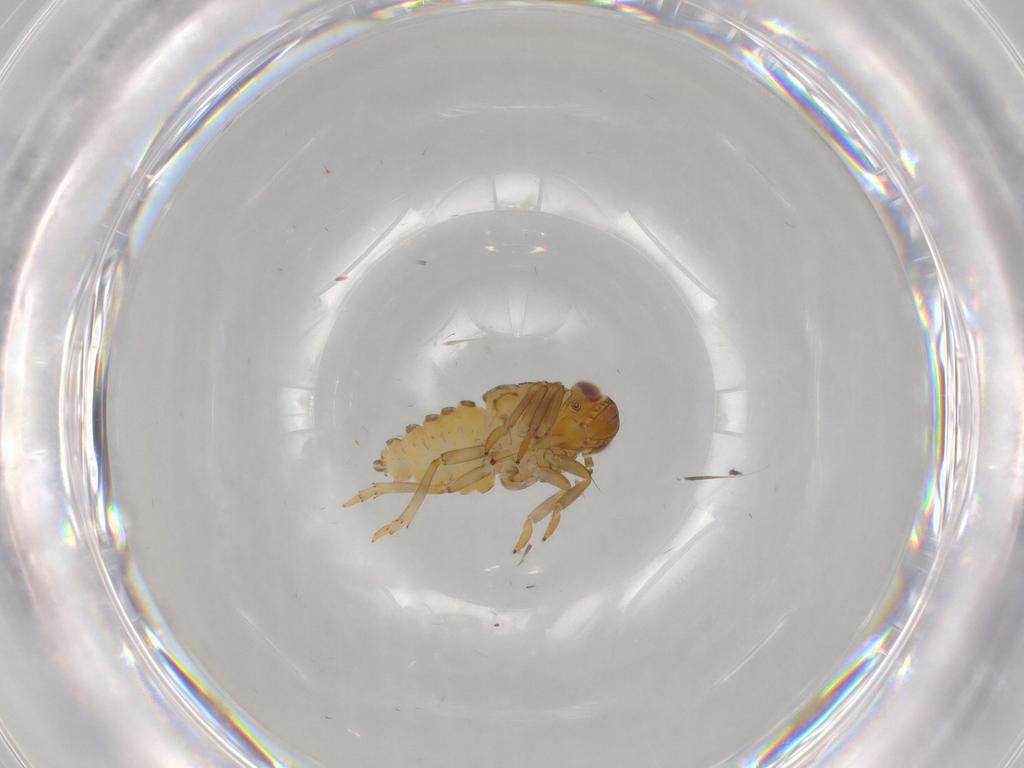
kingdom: Animalia
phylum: Arthropoda
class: Insecta
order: Hemiptera
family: Issidae
